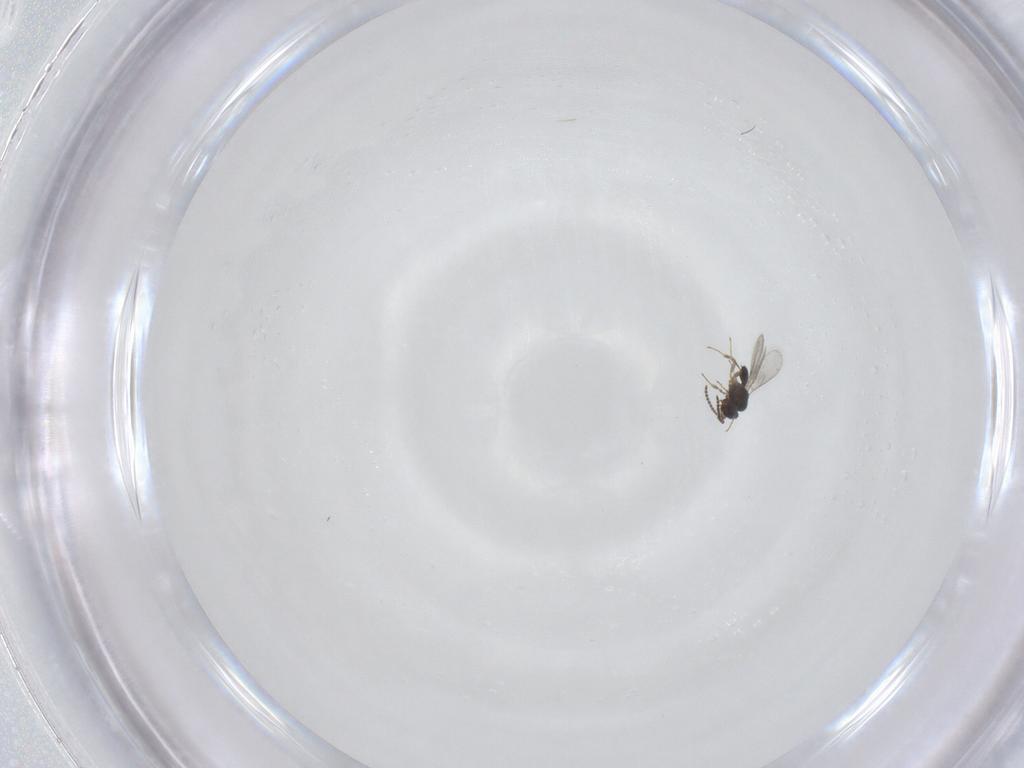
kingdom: Animalia
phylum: Arthropoda
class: Insecta
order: Hymenoptera
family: Scelionidae
